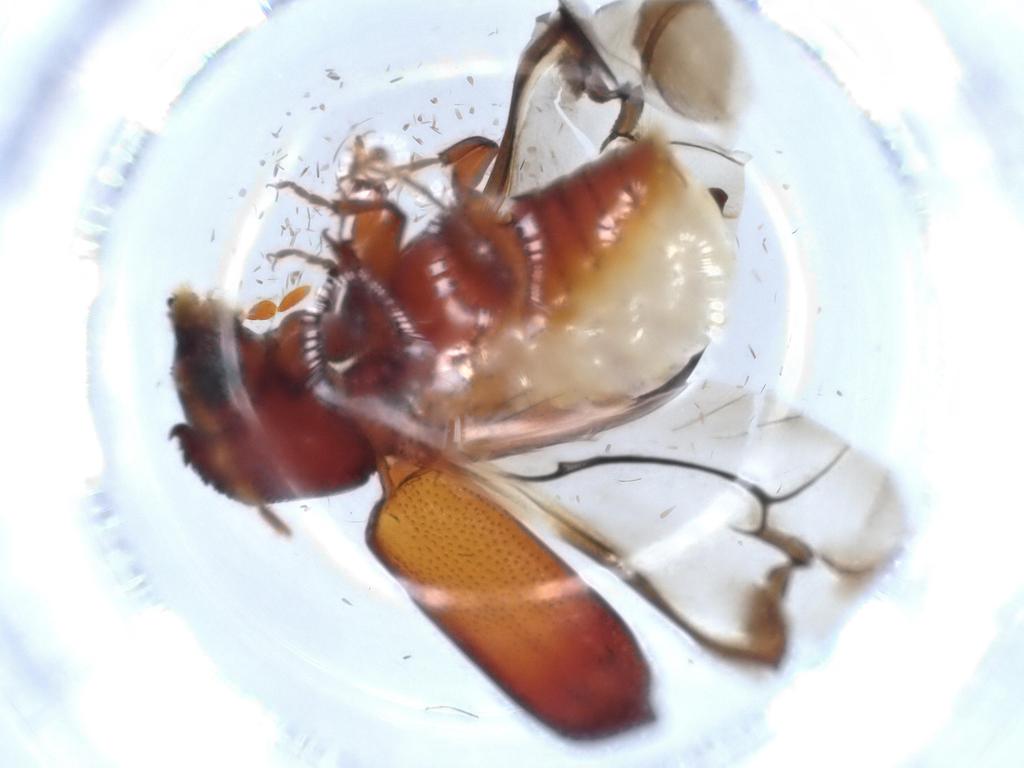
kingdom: Animalia
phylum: Arthropoda
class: Insecta
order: Coleoptera
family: Bostrichidae
